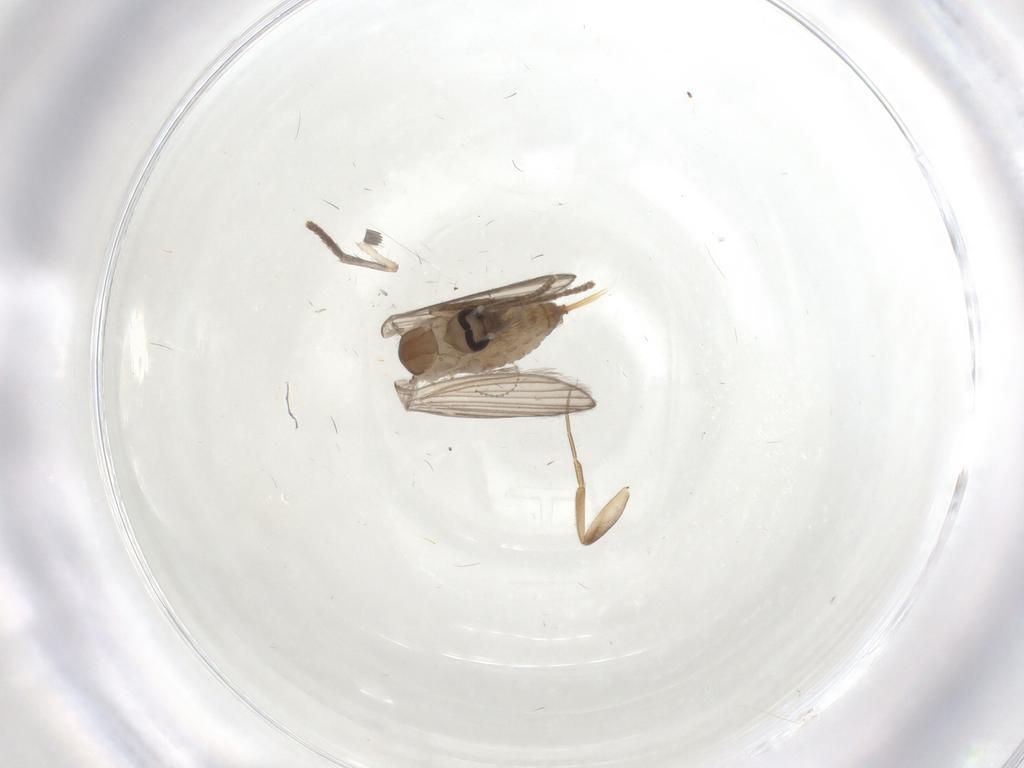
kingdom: Animalia
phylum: Arthropoda
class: Insecta
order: Diptera
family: Psychodidae
